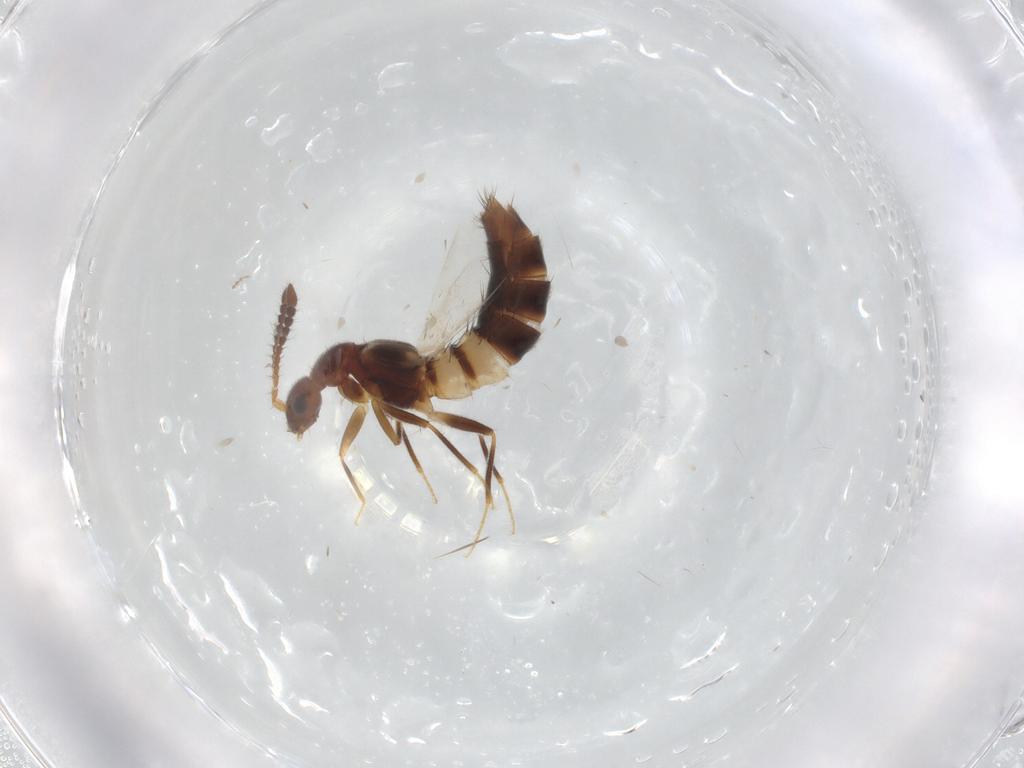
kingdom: Animalia
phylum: Arthropoda
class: Insecta
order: Coleoptera
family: Staphylinidae
